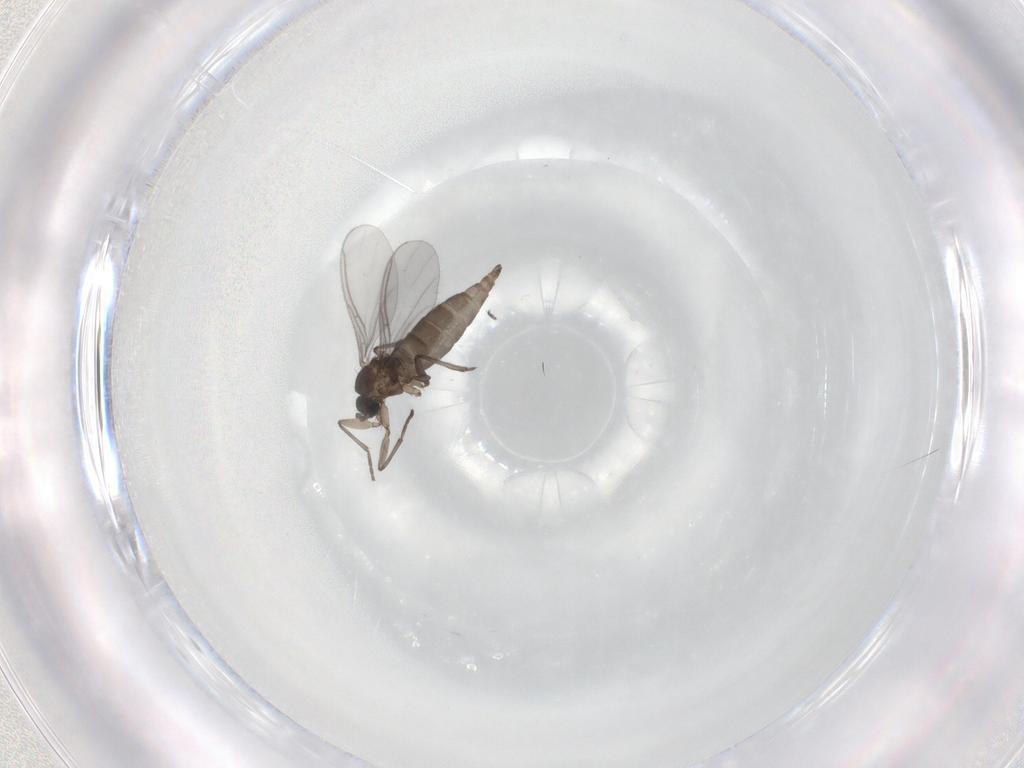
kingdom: Animalia
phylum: Arthropoda
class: Insecta
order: Diptera
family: Sciaridae
